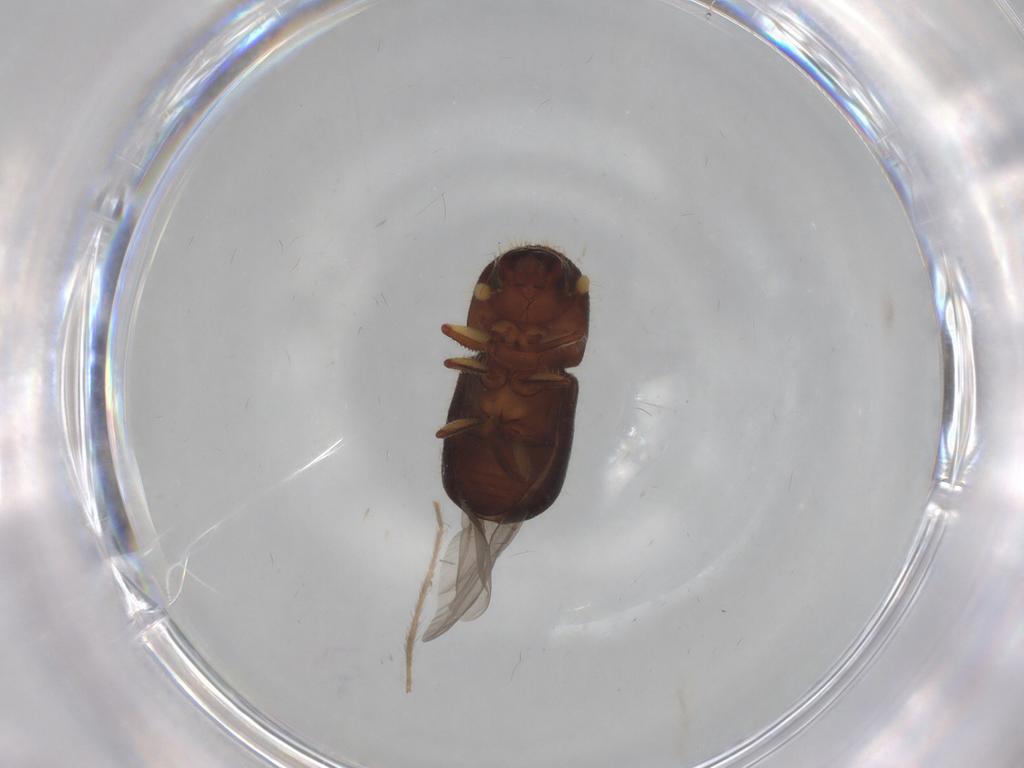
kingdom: Animalia
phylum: Arthropoda
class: Insecta
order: Coleoptera
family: Curculionidae
